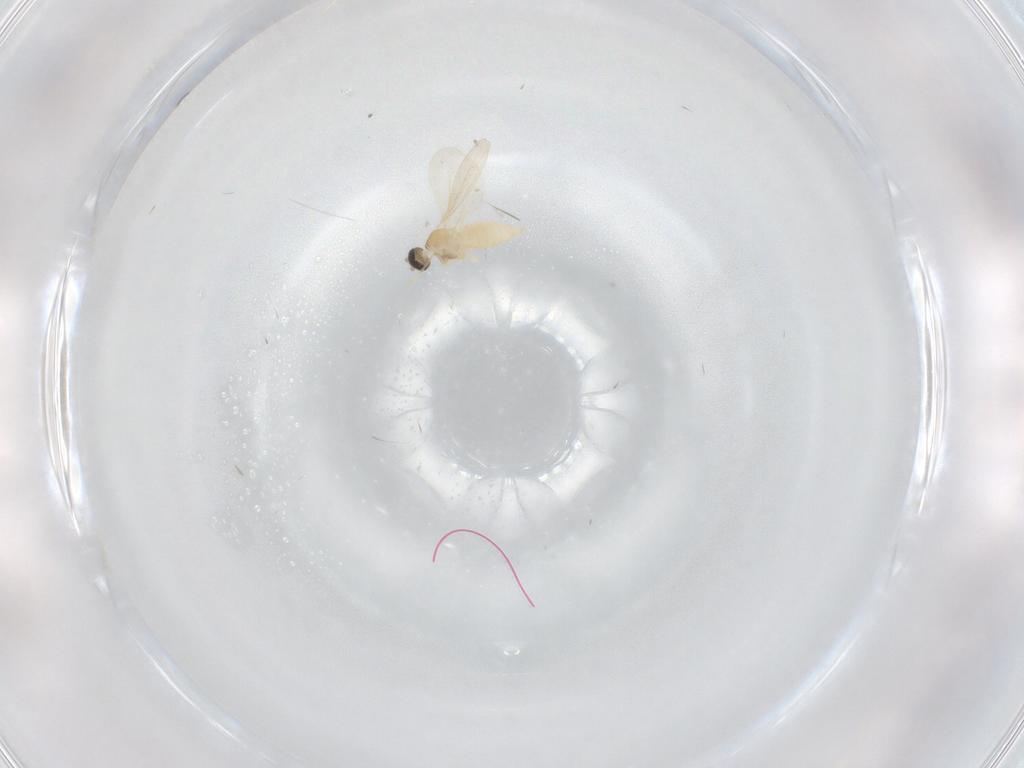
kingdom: Animalia
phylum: Arthropoda
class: Insecta
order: Diptera
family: Cecidomyiidae
